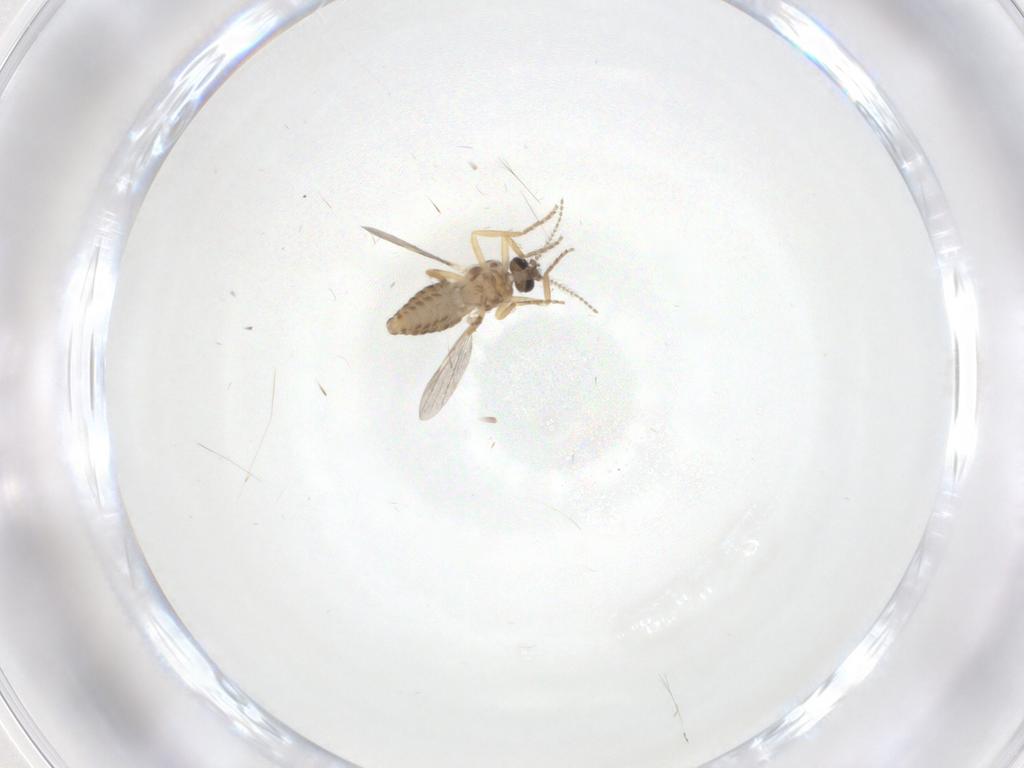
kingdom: Animalia
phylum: Arthropoda
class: Insecta
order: Diptera
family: Ceratopogonidae
